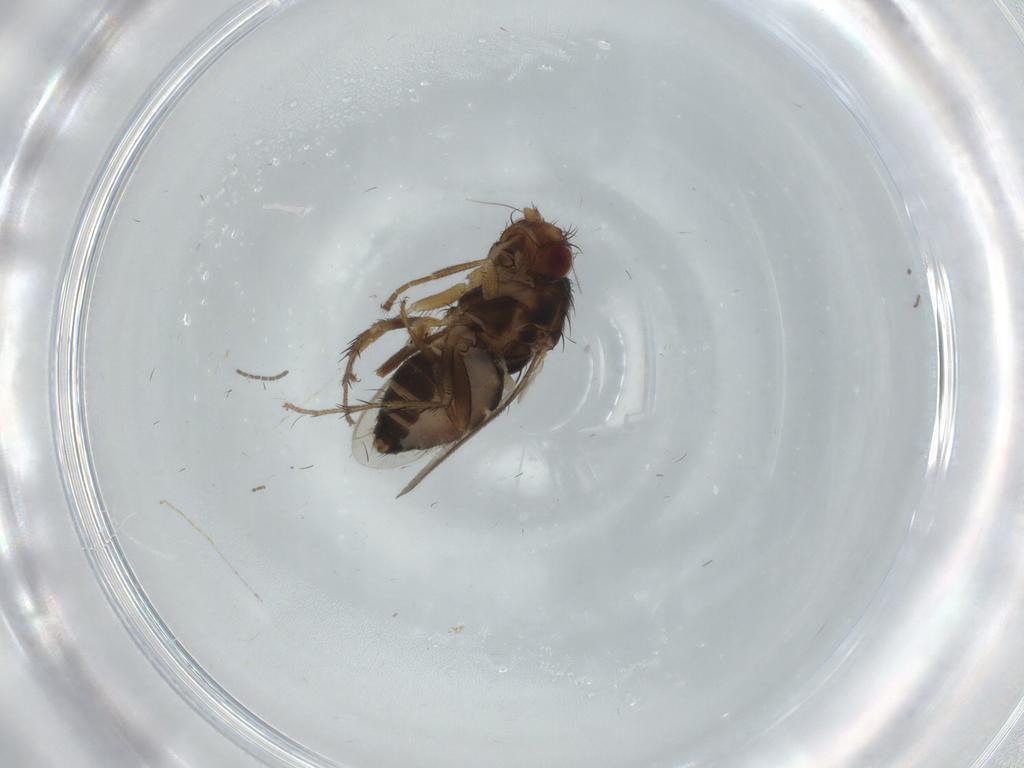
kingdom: Animalia
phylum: Arthropoda
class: Insecta
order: Diptera
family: Sphaeroceridae
